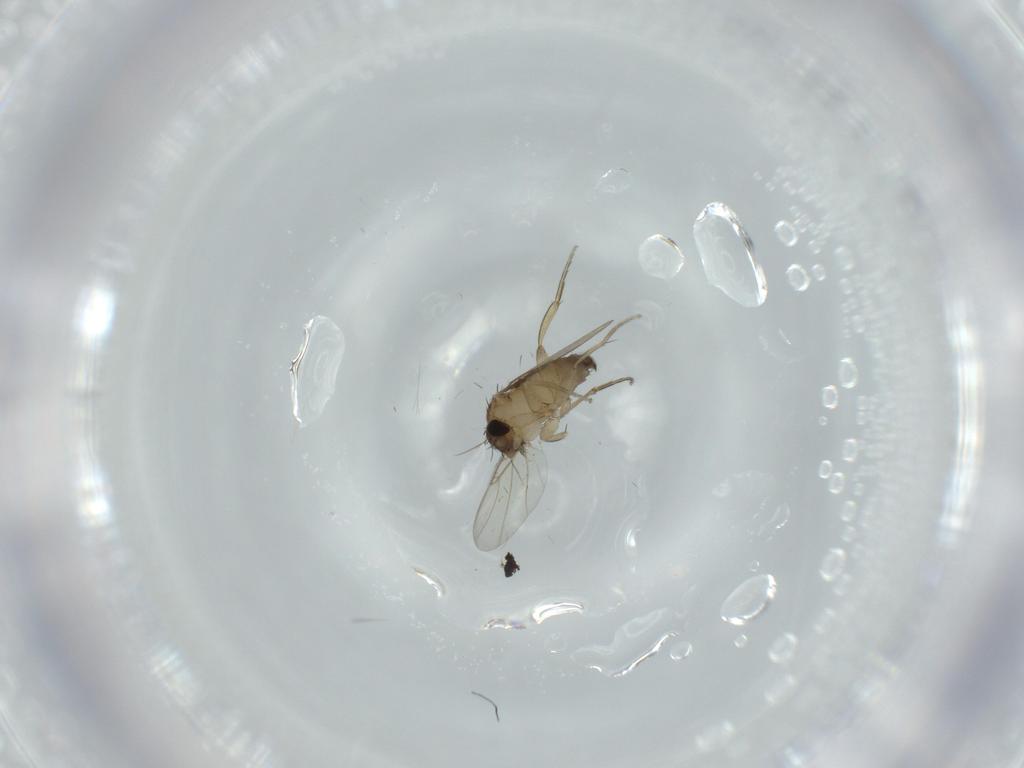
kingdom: Animalia
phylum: Arthropoda
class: Insecta
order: Diptera
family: Phoridae
